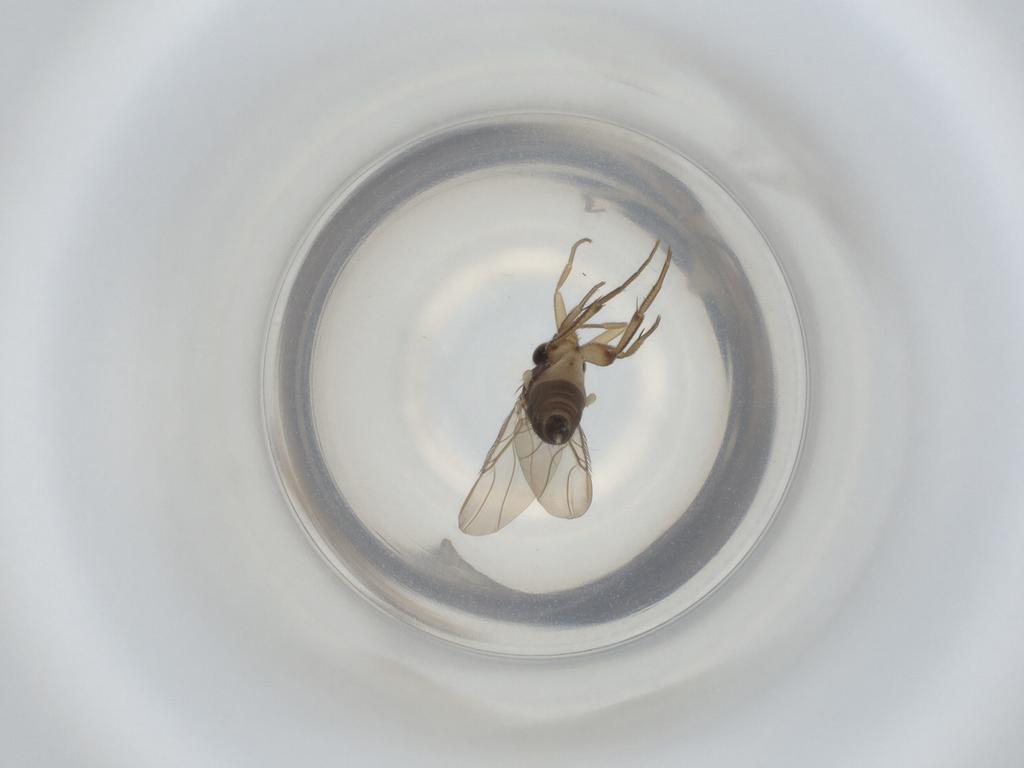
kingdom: Animalia
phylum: Arthropoda
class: Insecta
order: Diptera
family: Phoridae
